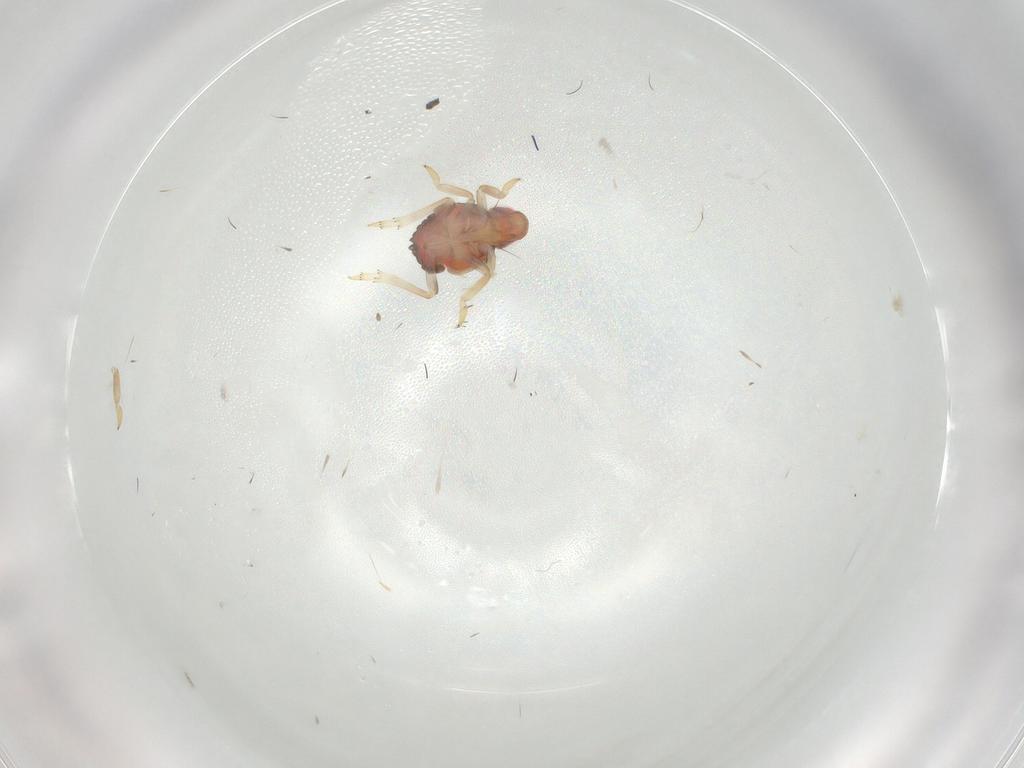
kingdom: Animalia
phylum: Arthropoda
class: Insecta
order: Hemiptera
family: Issidae
